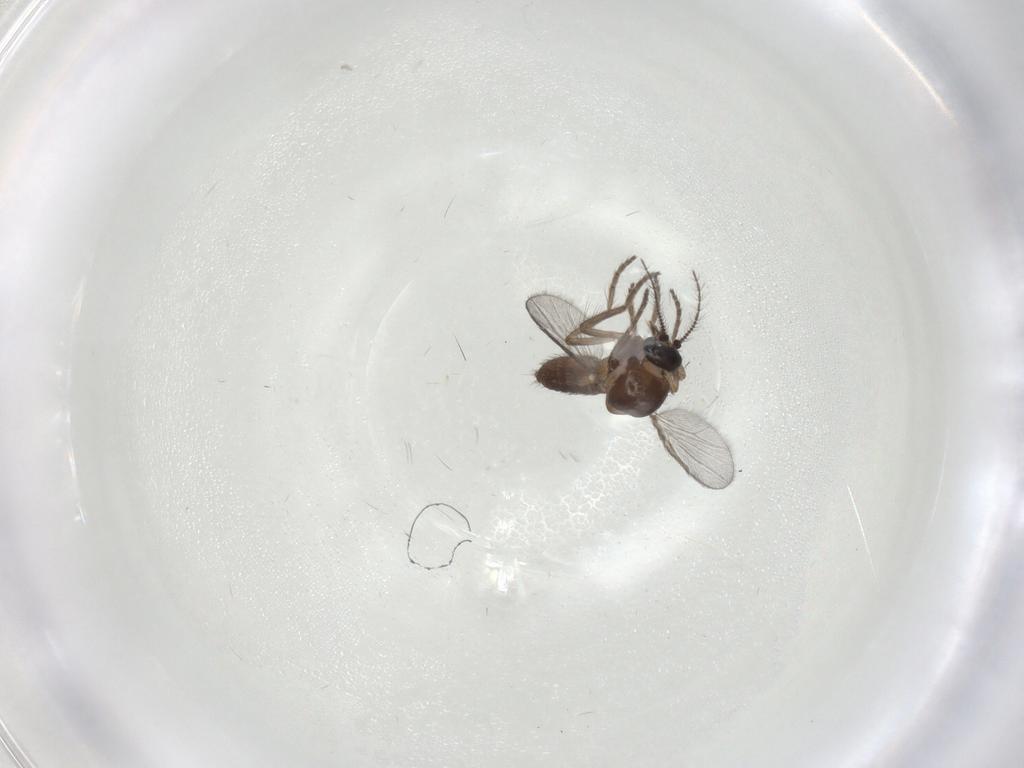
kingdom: Animalia
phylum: Arthropoda
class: Insecta
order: Diptera
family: Ceratopogonidae
